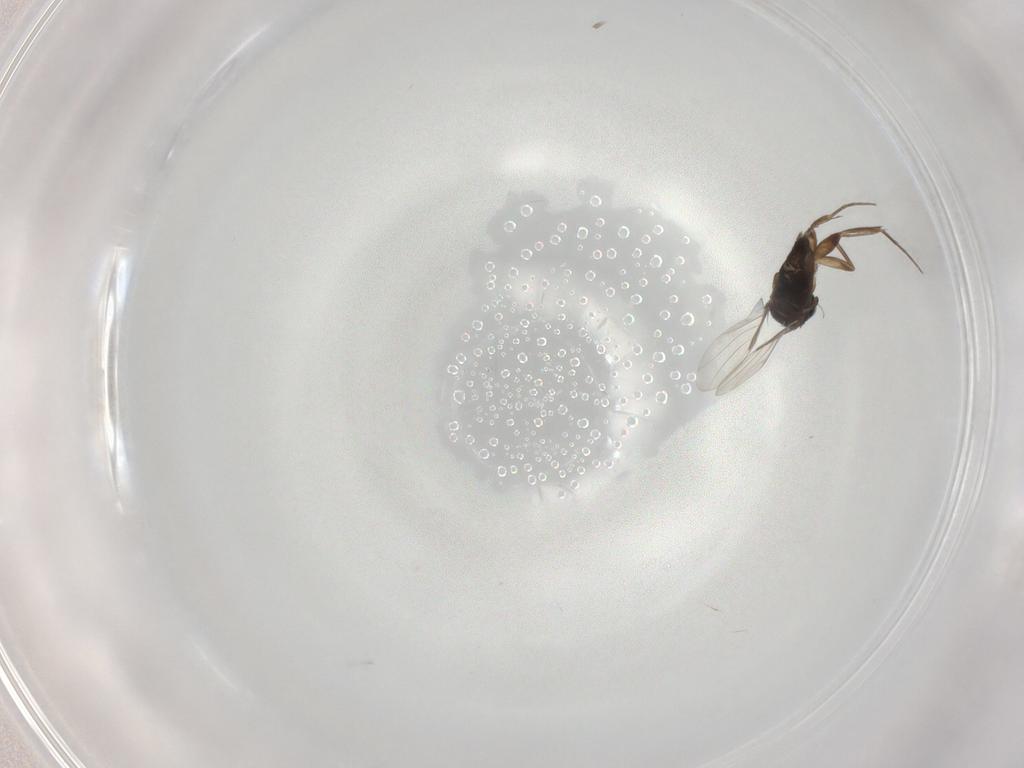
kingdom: Animalia
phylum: Arthropoda
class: Insecta
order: Diptera
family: Phoridae
